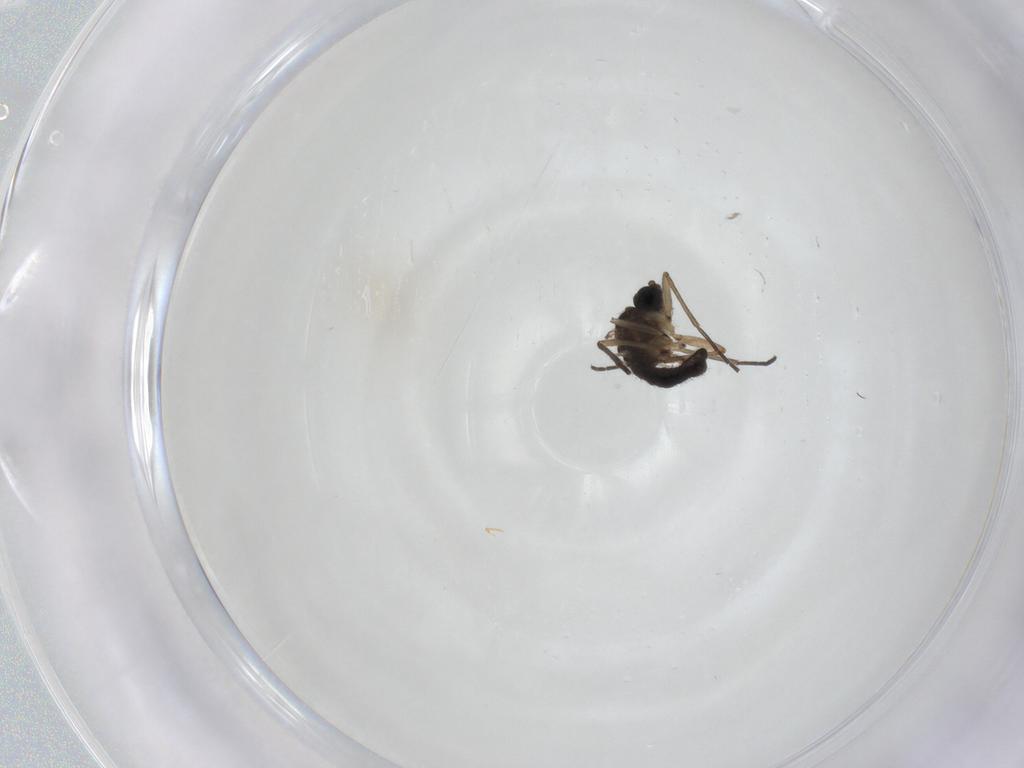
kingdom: Animalia
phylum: Arthropoda
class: Insecta
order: Diptera
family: Sciaridae
